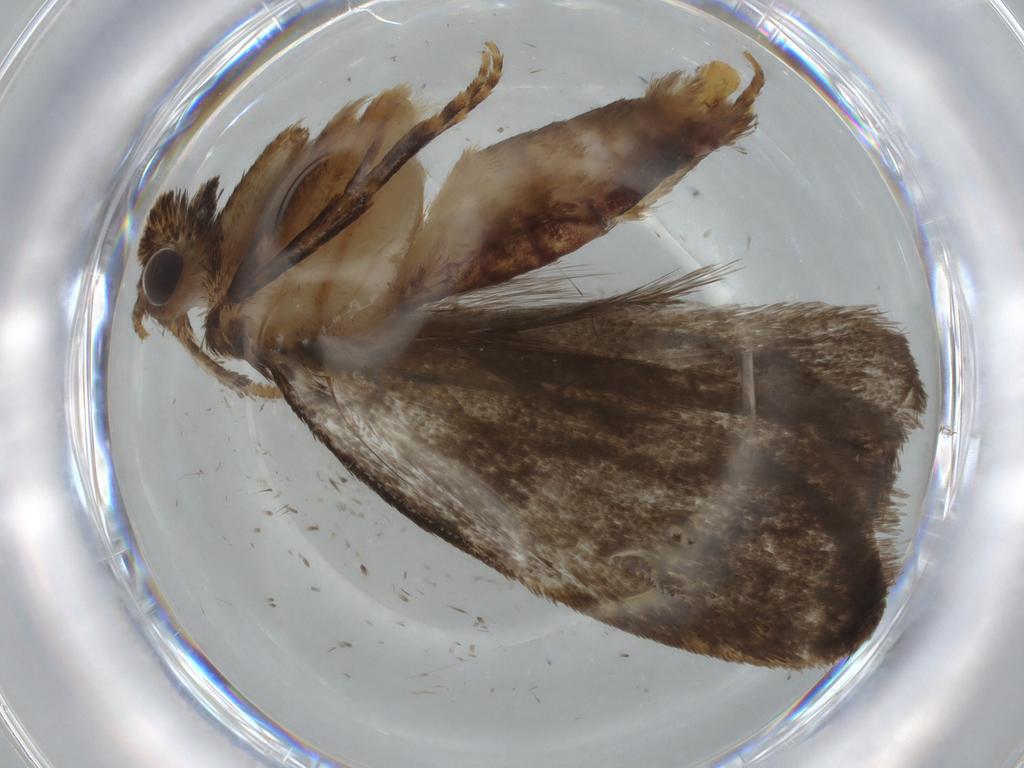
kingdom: Animalia
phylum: Arthropoda
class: Insecta
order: Lepidoptera
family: Tineidae
